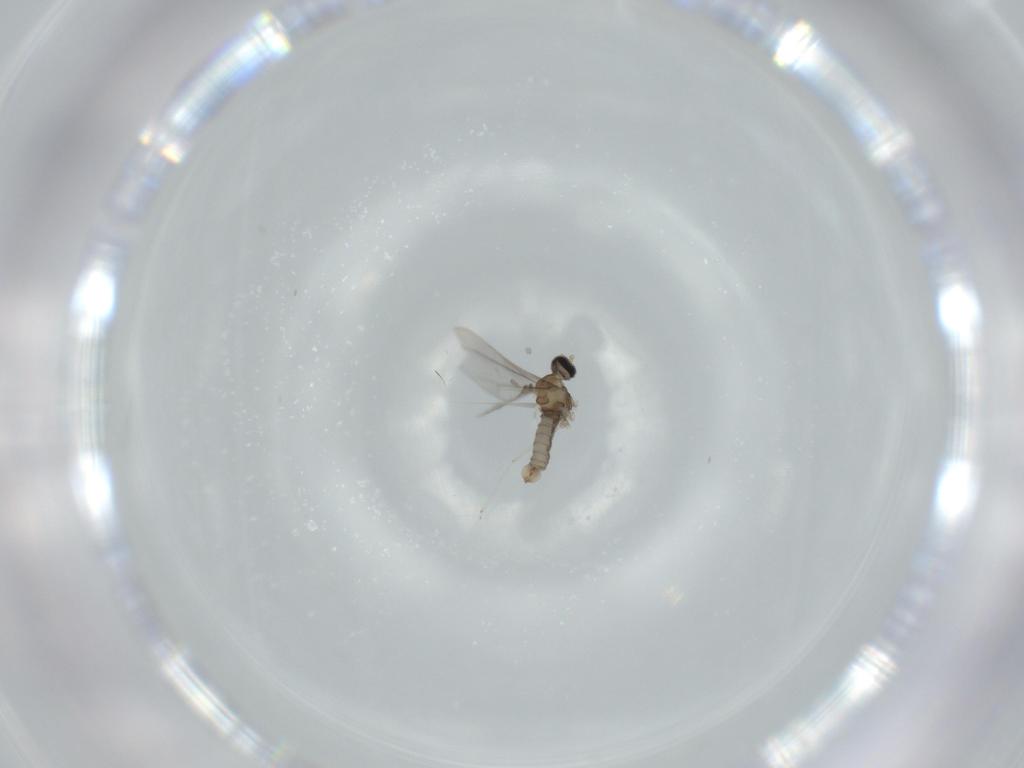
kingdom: Animalia
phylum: Arthropoda
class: Insecta
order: Diptera
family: Cecidomyiidae
